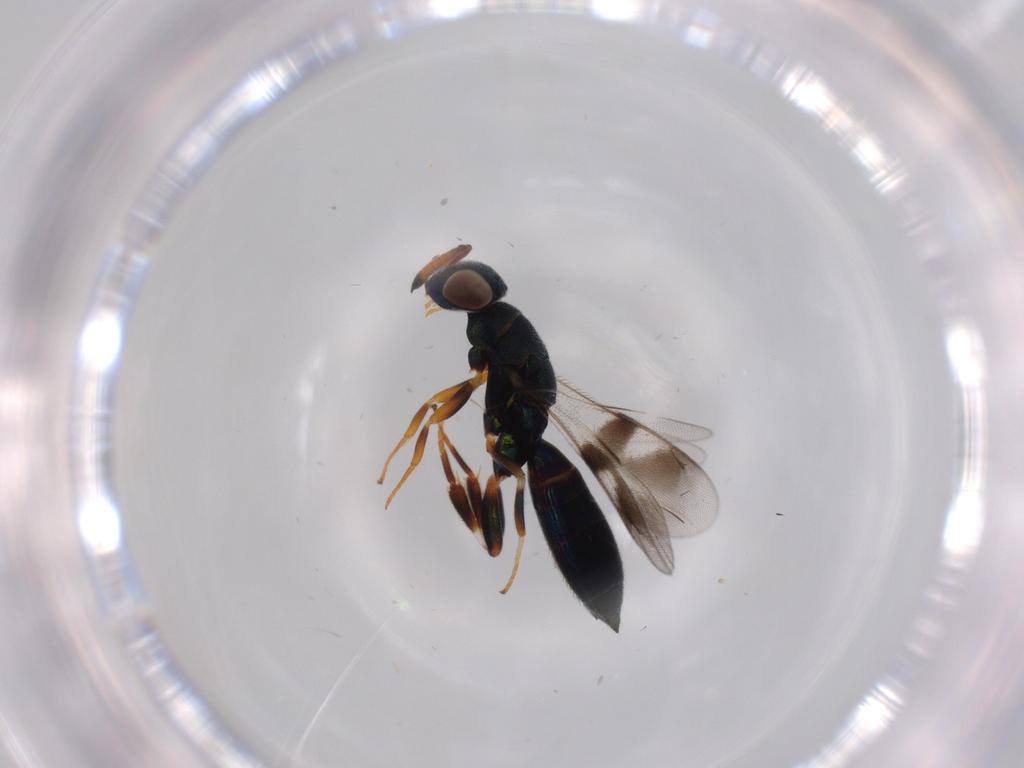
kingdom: Animalia
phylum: Arthropoda
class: Insecta
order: Hymenoptera
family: Cleonyminae
